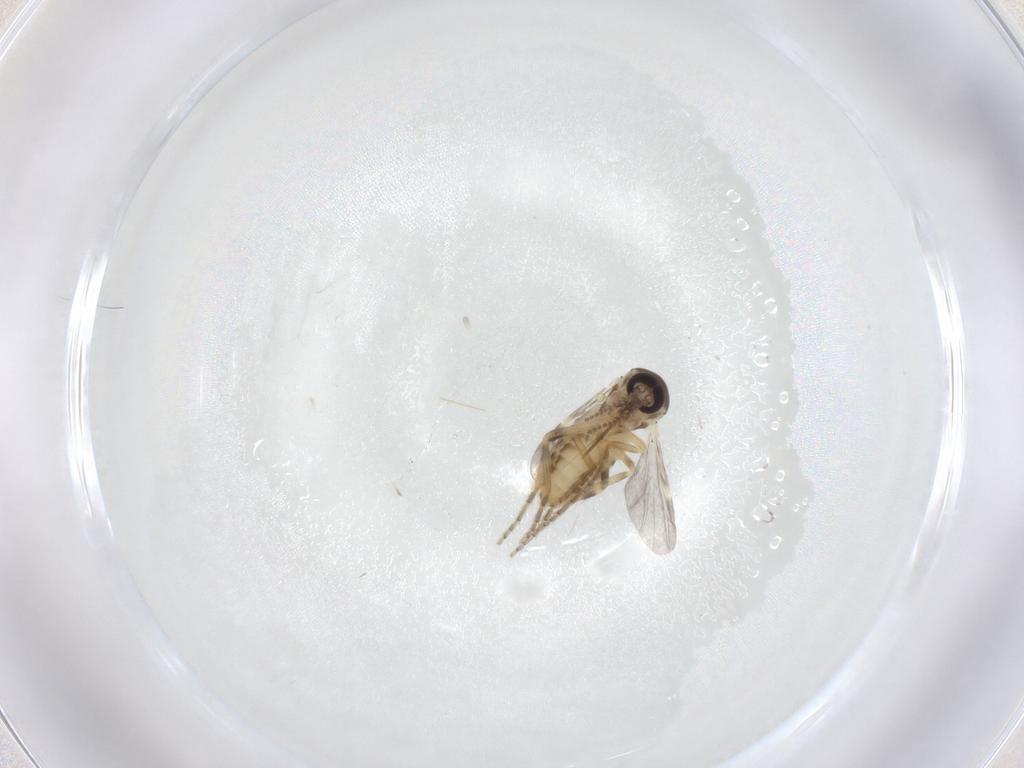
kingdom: Animalia
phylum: Arthropoda
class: Insecta
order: Diptera
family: Ceratopogonidae
